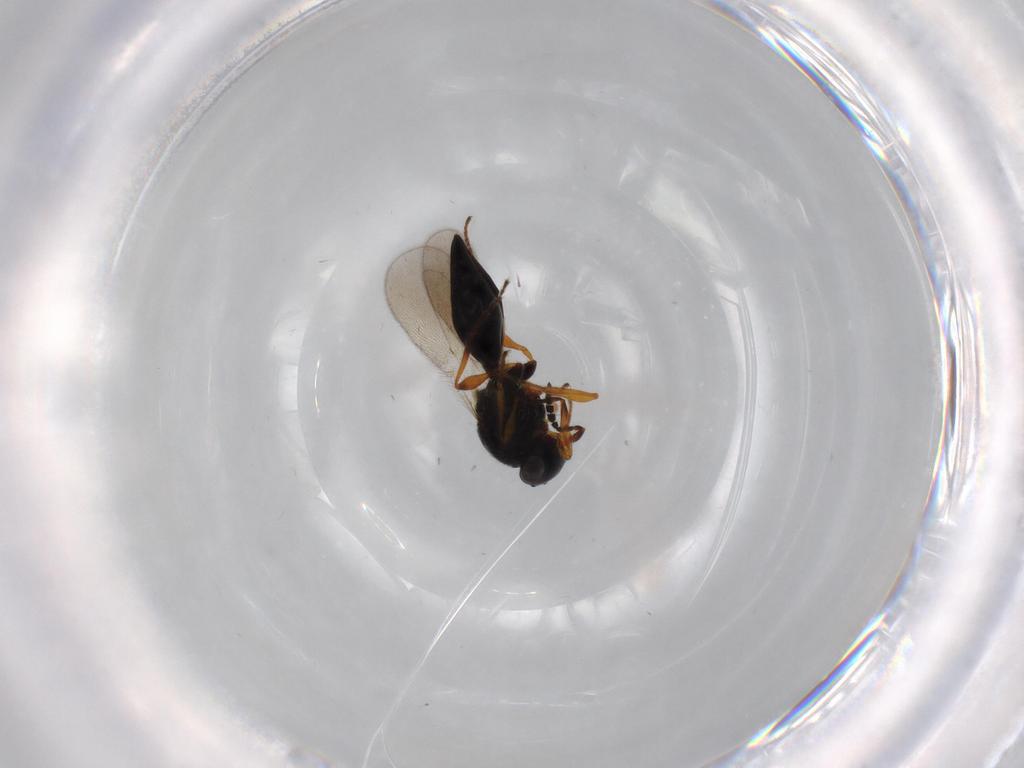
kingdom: Animalia
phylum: Arthropoda
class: Insecta
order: Hymenoptera
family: Platygastridae
